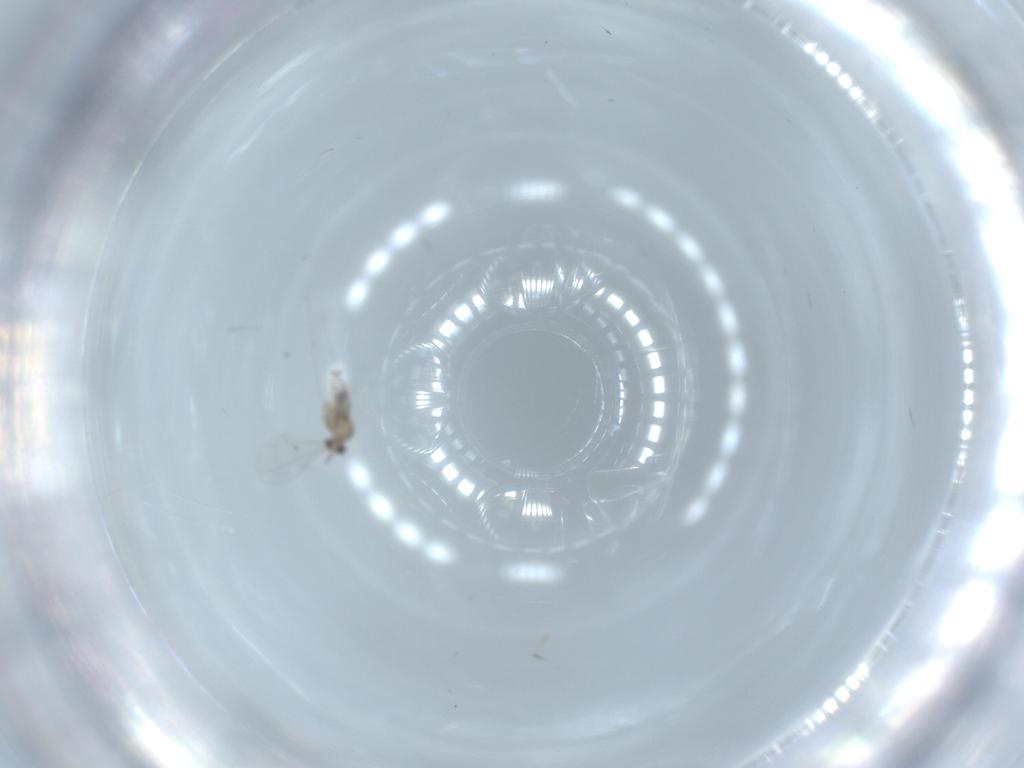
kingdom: Animalia
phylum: Arthropoda
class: Insecta
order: Diptera
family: Cecidomyiidae
